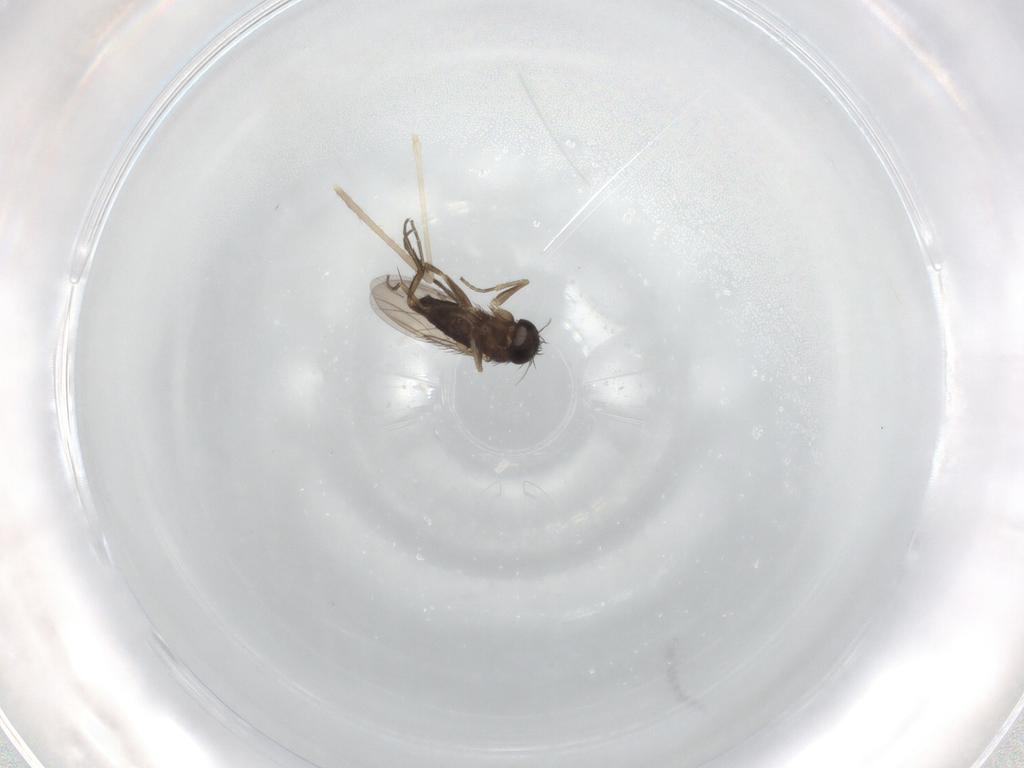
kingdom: Animalia
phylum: Arthropoda
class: Insecta
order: Diptera
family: Phoridae
